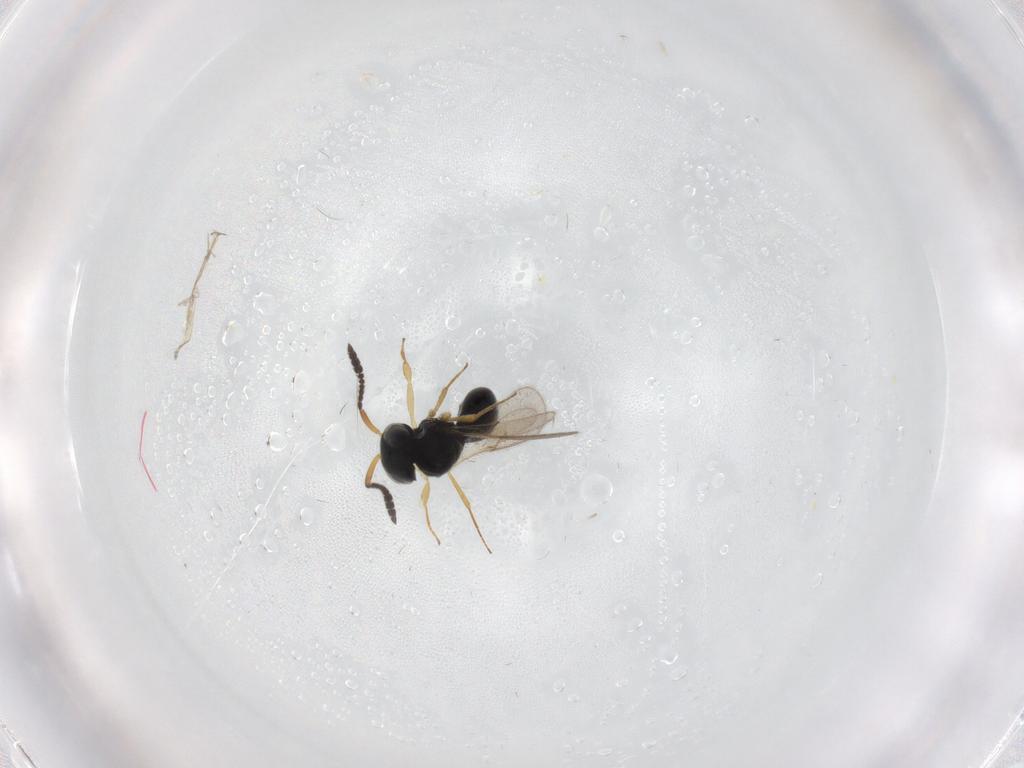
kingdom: Animalia
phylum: Arthropoda
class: Insecta
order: Hymenoptera
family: Scelionidae
